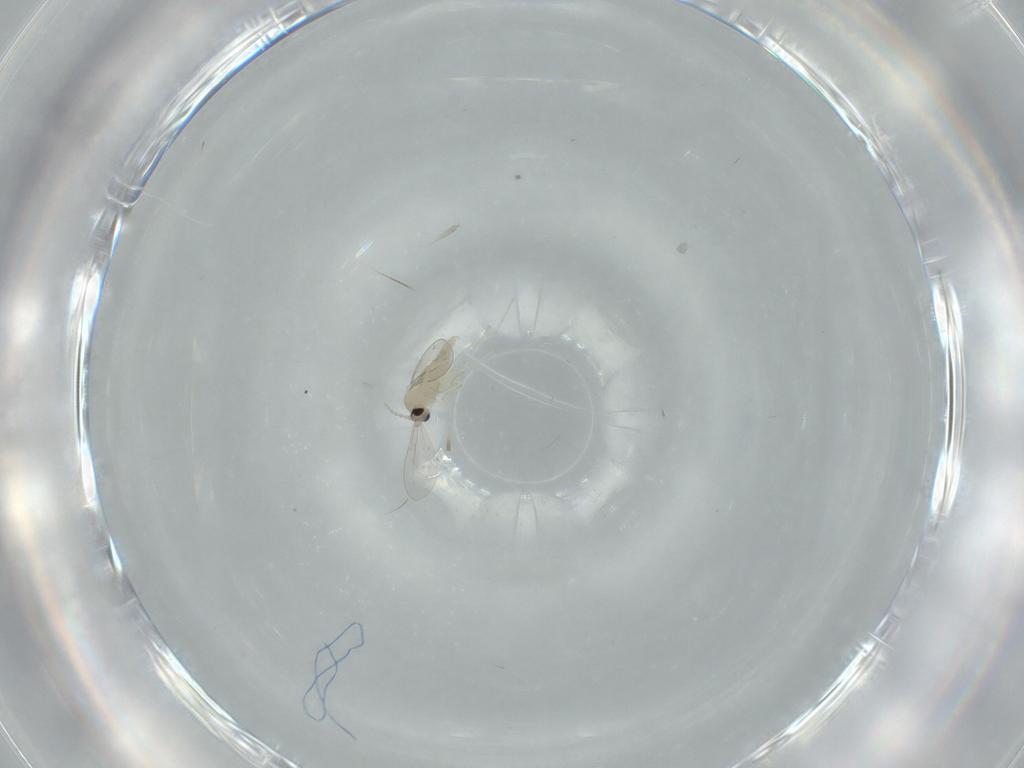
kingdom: Animalia
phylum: Arthropoda
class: Insecta
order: Diptera
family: Cecidomyiidae
